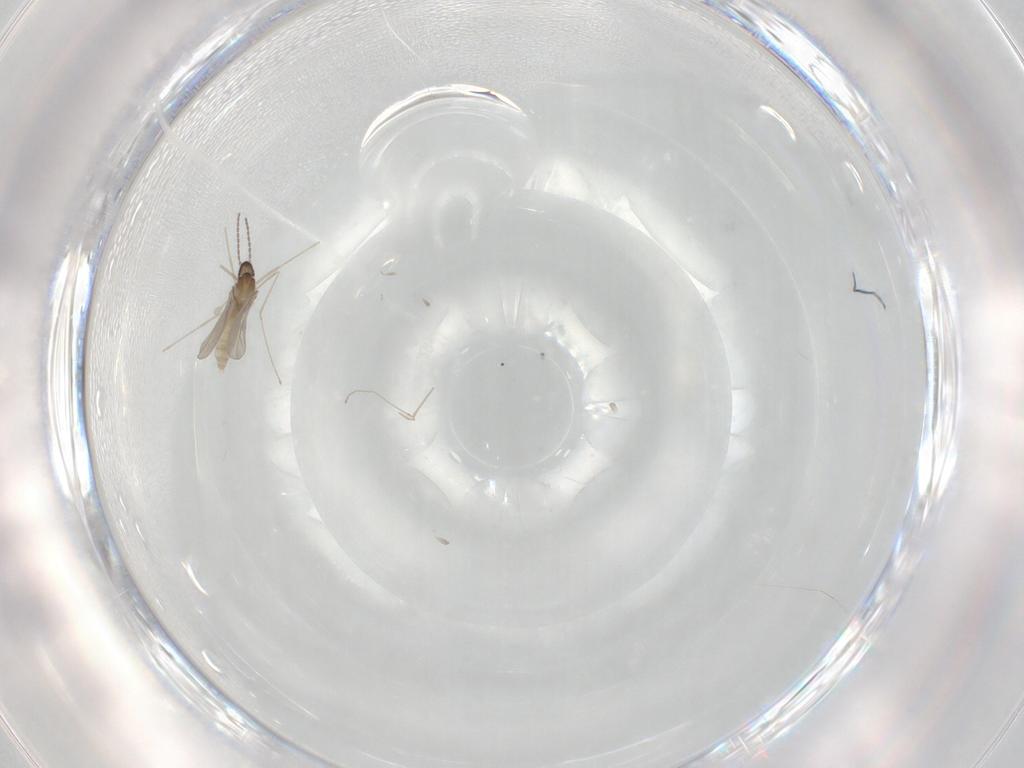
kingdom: Animalia
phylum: Arthropoda
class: Insecta
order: Diptera
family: Cecidomyiidae
